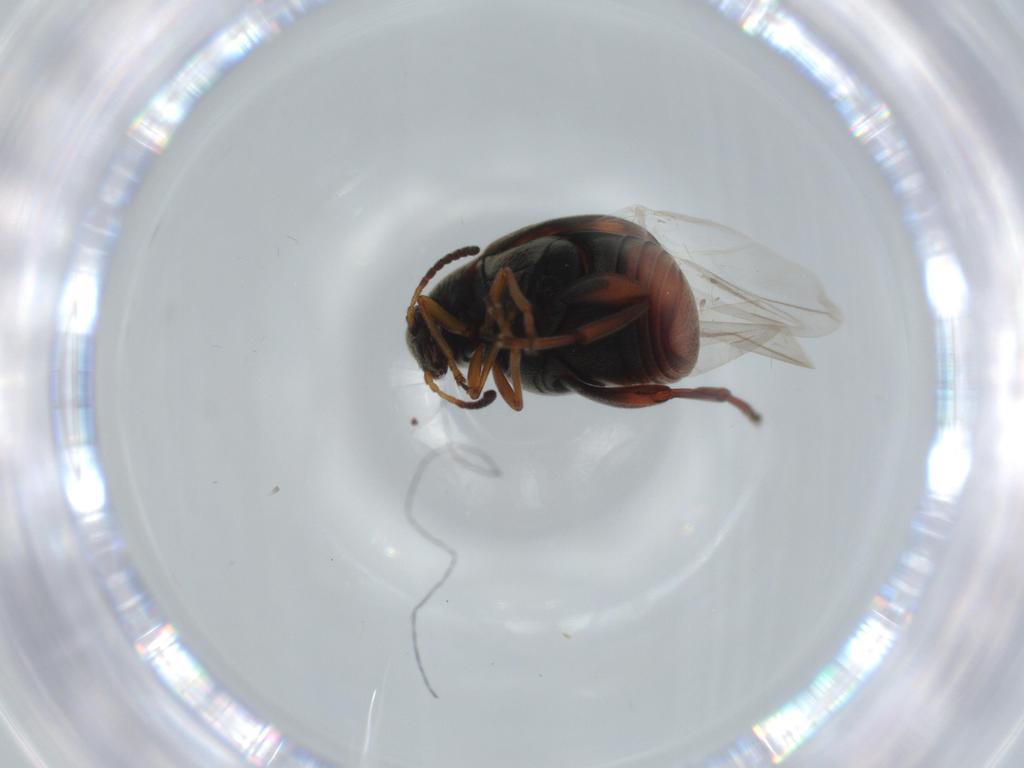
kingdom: Animalia
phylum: Arthropoda
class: Insecta
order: Coleoptera
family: Chrysomelidae
